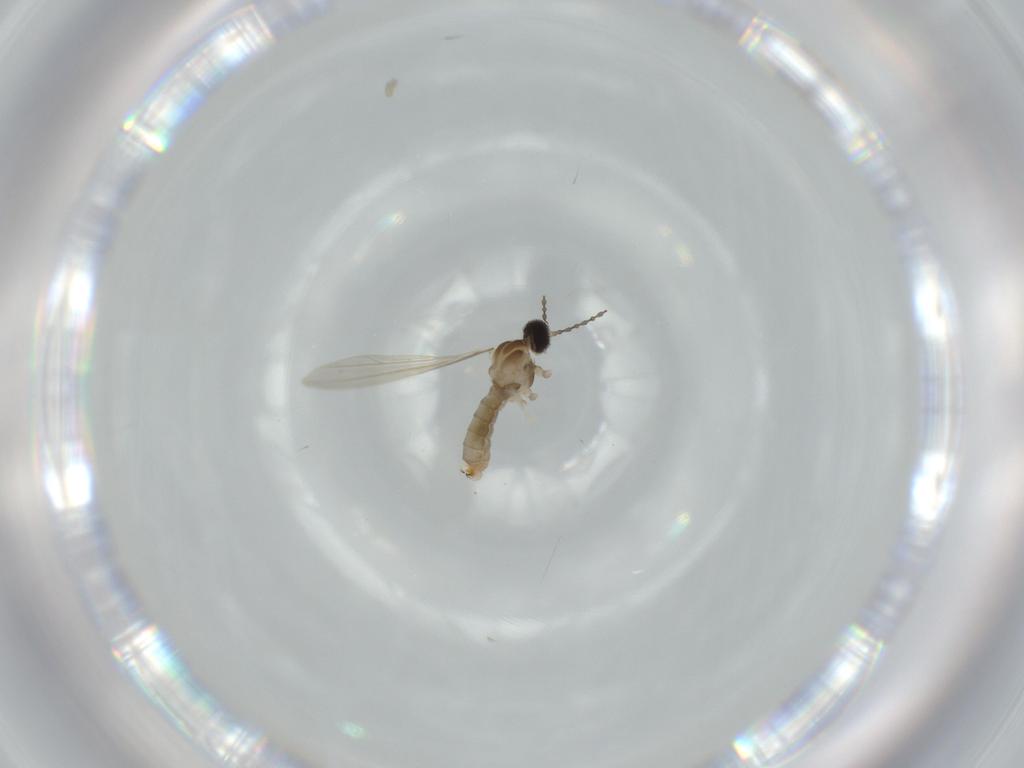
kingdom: Animalia
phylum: Arthropoda
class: Insecta
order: Diptera
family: Cecidomyiidae
